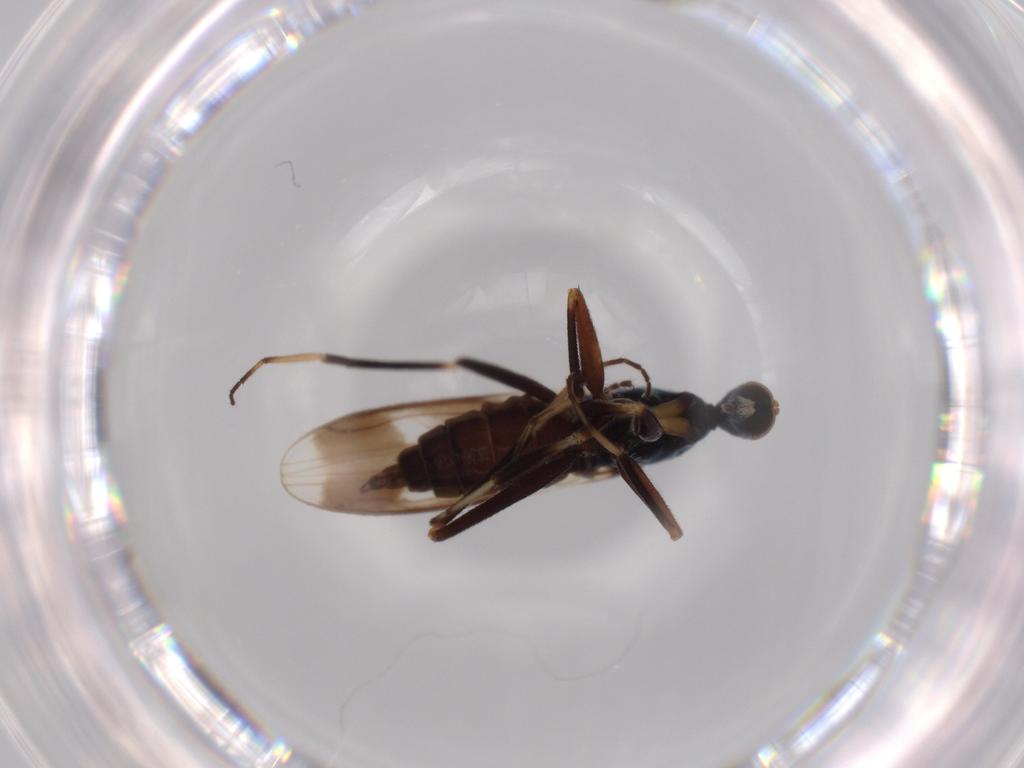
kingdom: Animalia
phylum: Arthropoda
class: Insecta
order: Diptera
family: Hybotidae
